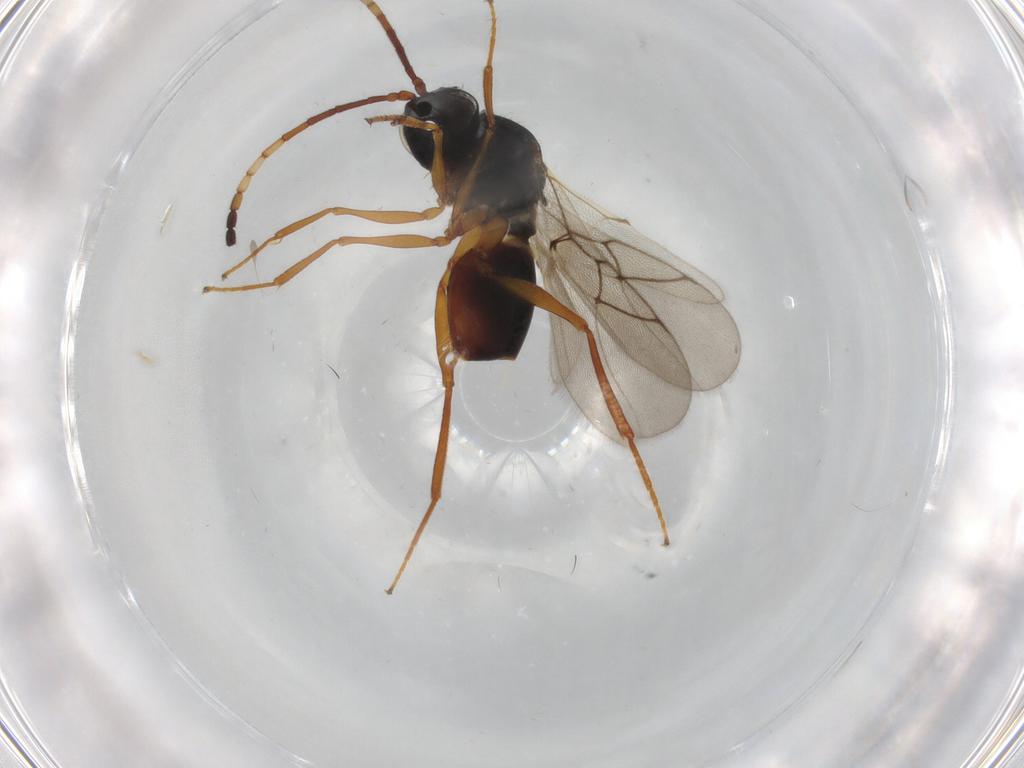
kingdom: Animalia
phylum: Arthropoda
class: Insecta
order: Hymenoptera
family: Figitidae
